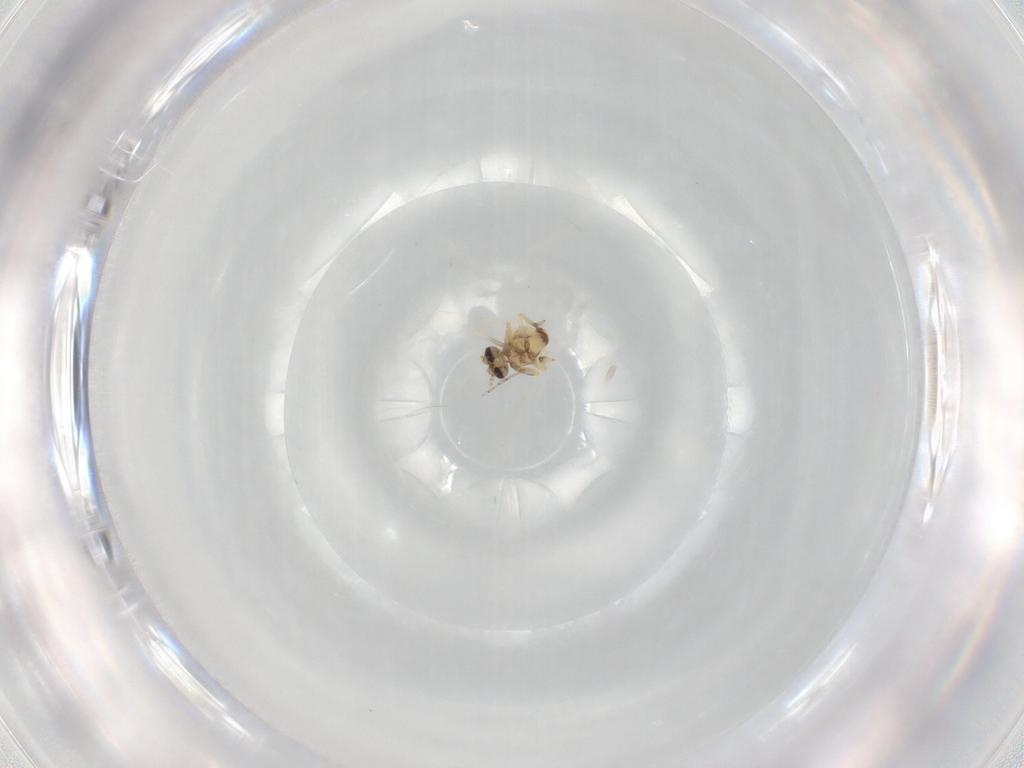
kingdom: Animalia
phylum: Arthropoda
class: Insecta
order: Diptera
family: Ceratopogonidae
